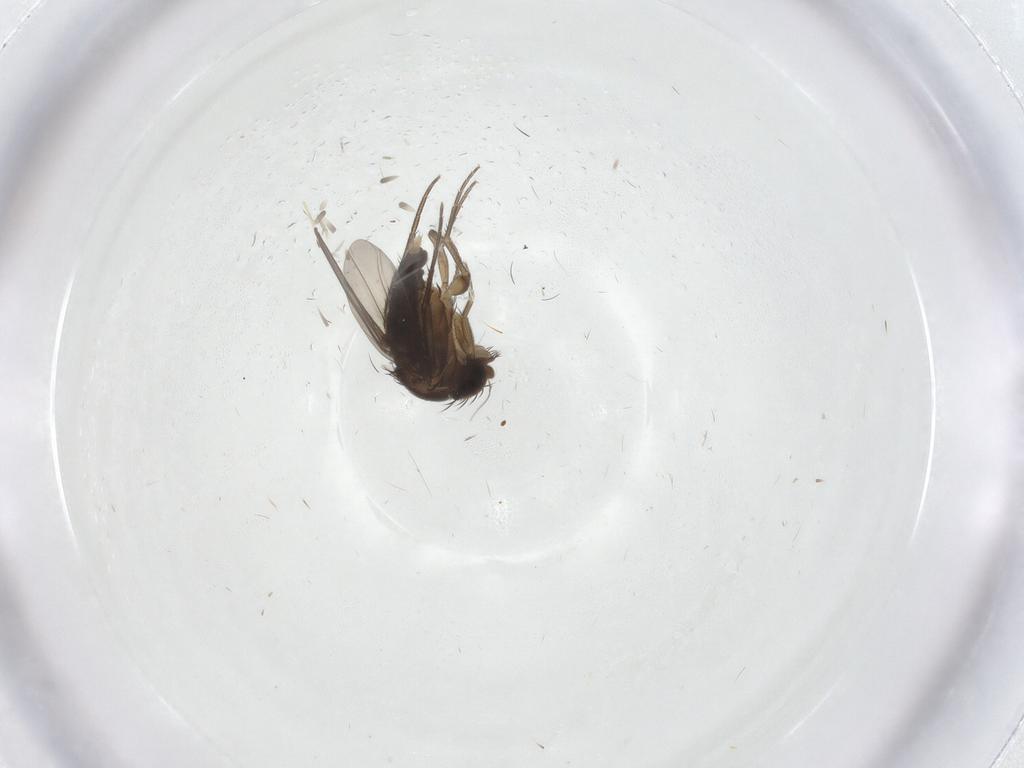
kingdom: Animalia
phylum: Arthropoda
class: Insecta
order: Diptera
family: Phoridae
